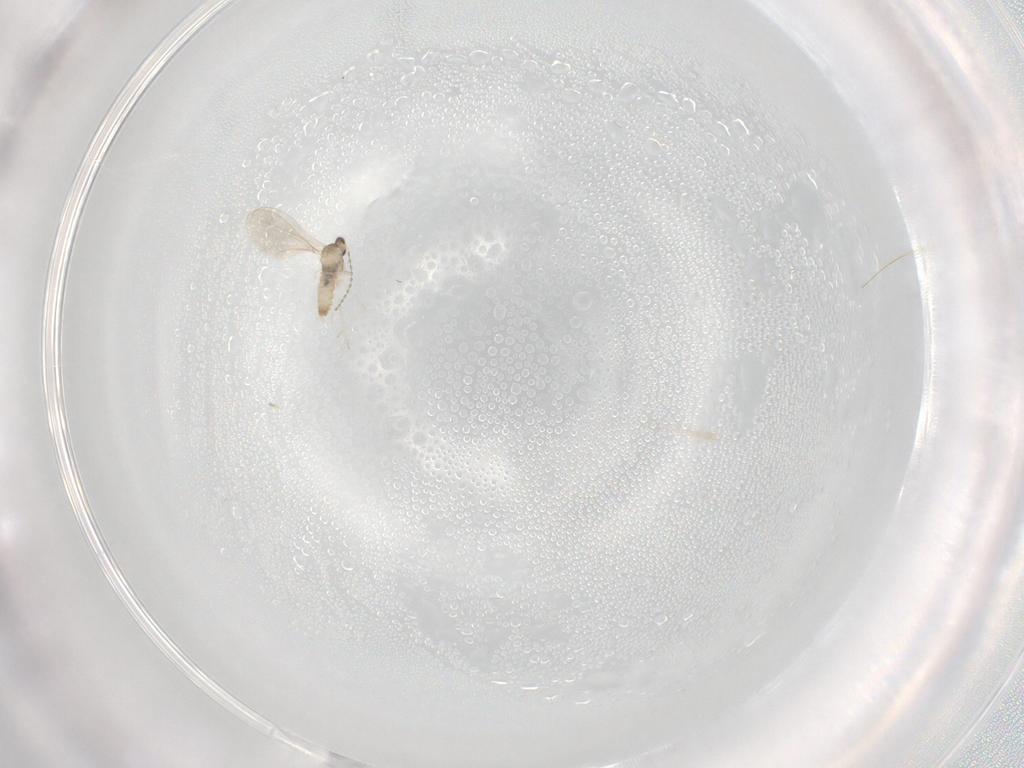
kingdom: Animalia
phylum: Arthropoda
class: Insecta
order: Diptera
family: Cecidomyiidae
